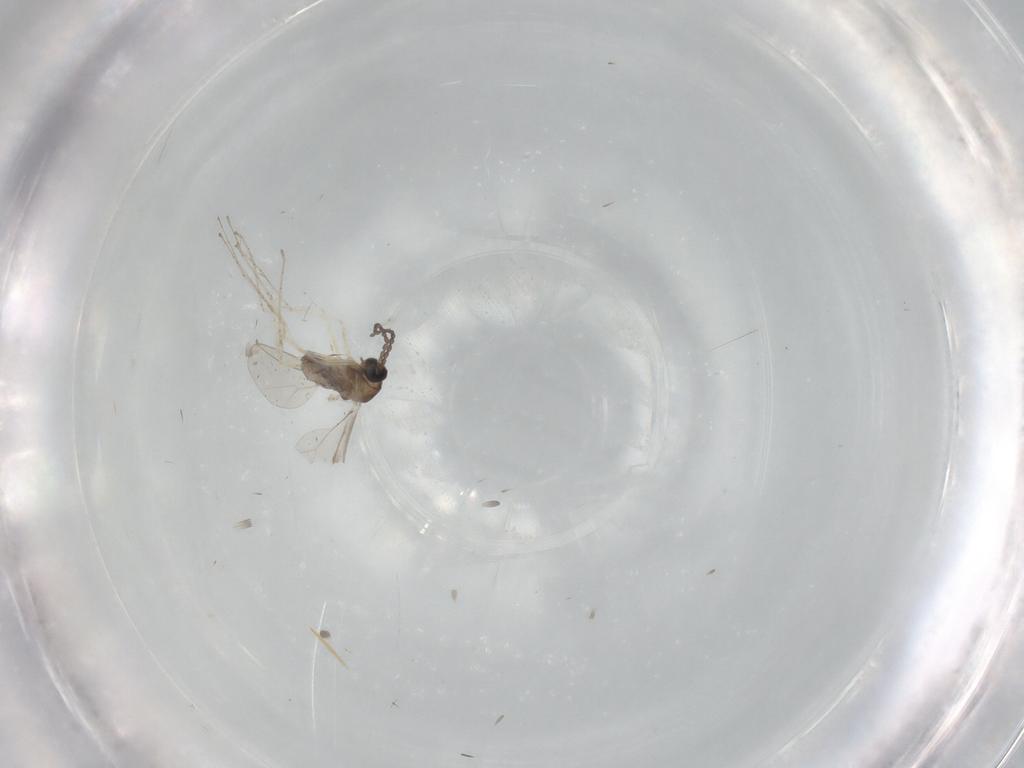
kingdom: Animalia
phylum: Arthropoda
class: Insecta
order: Diptera
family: Cecidomyiidae
